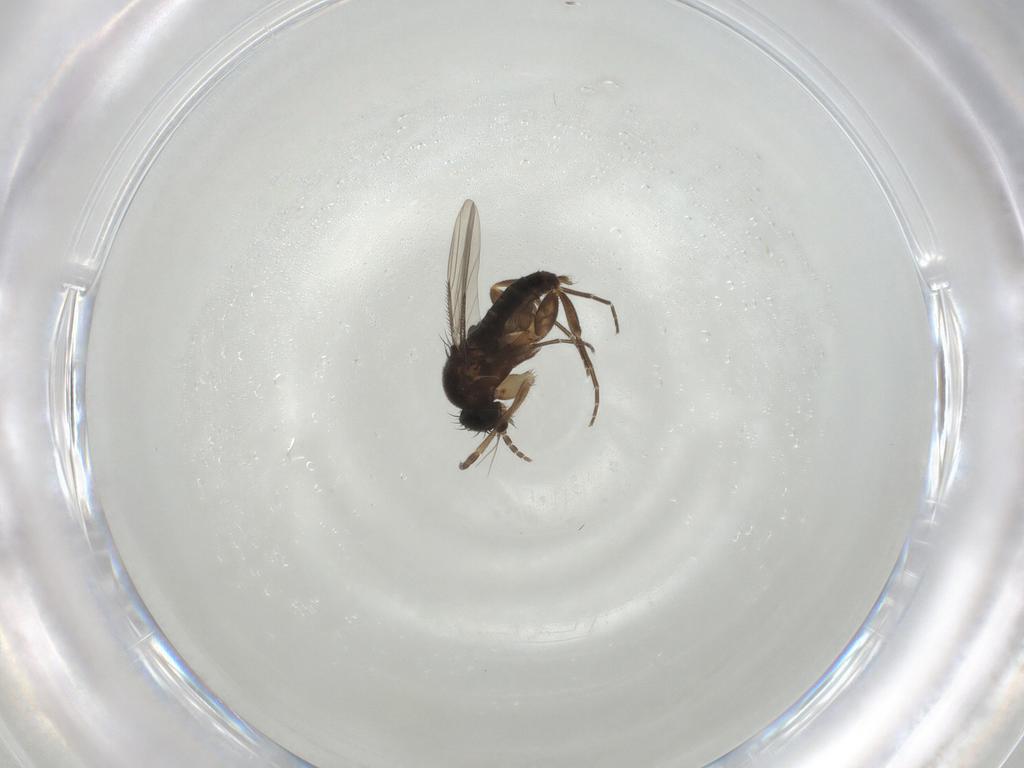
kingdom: Animalia
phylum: Arthropoda
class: Insecta
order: Diptera
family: Phoridae
